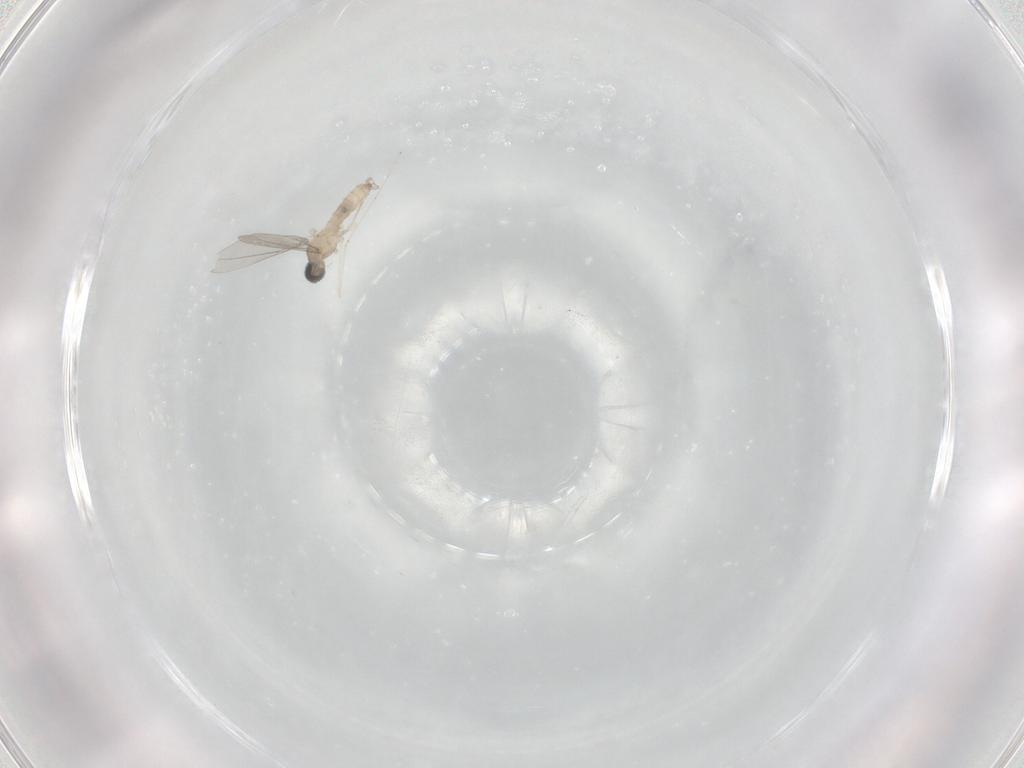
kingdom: Animalia
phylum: Arthropoda
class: Insecta
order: Diptera
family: Cecidomyiidae
